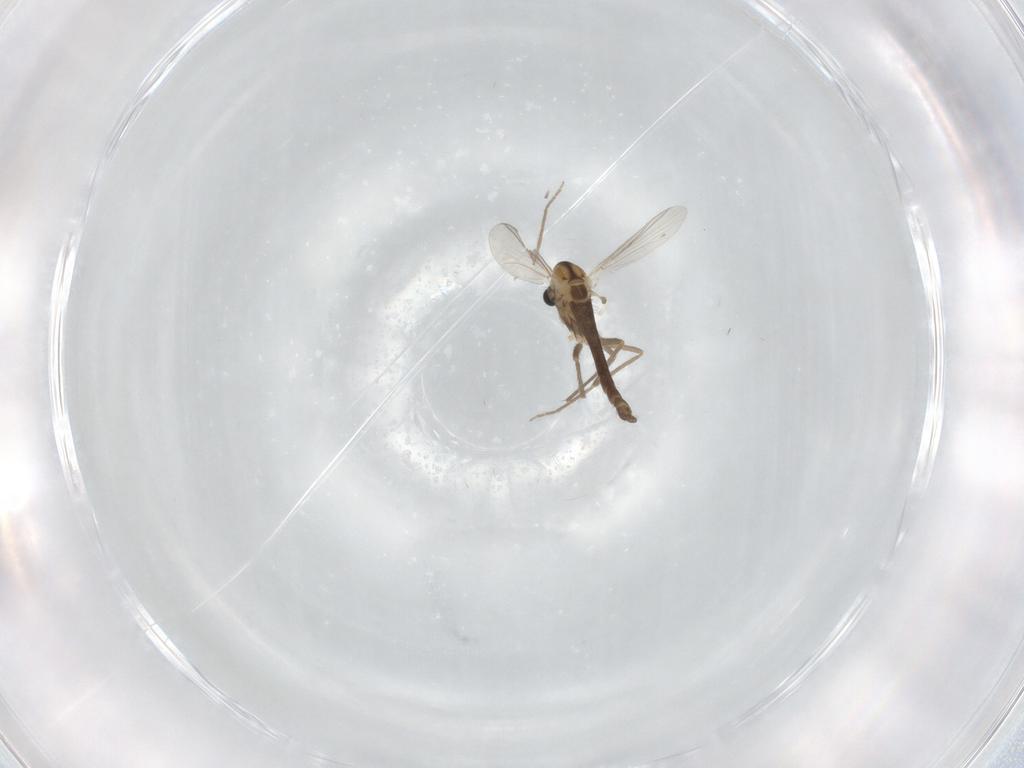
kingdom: Animalia
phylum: Arthropoda
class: Insecta
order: Diptera
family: Chironomidae
